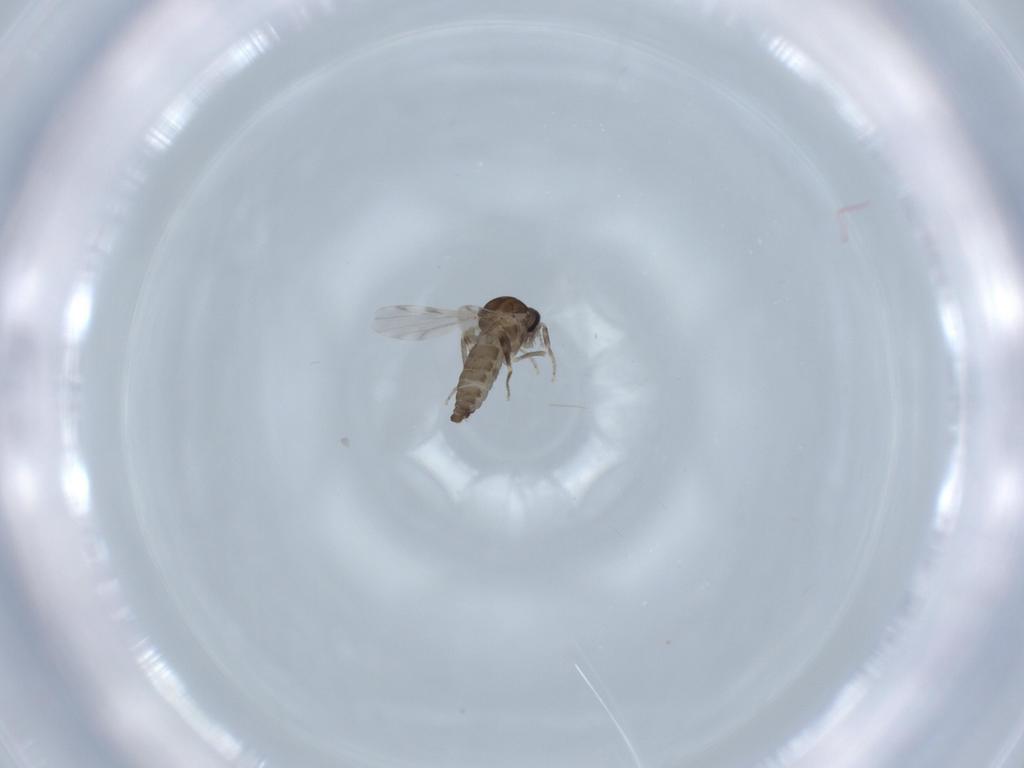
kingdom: Animalia
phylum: Arthropoda
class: Insecta
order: Diptera
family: Ceratopogonidae
